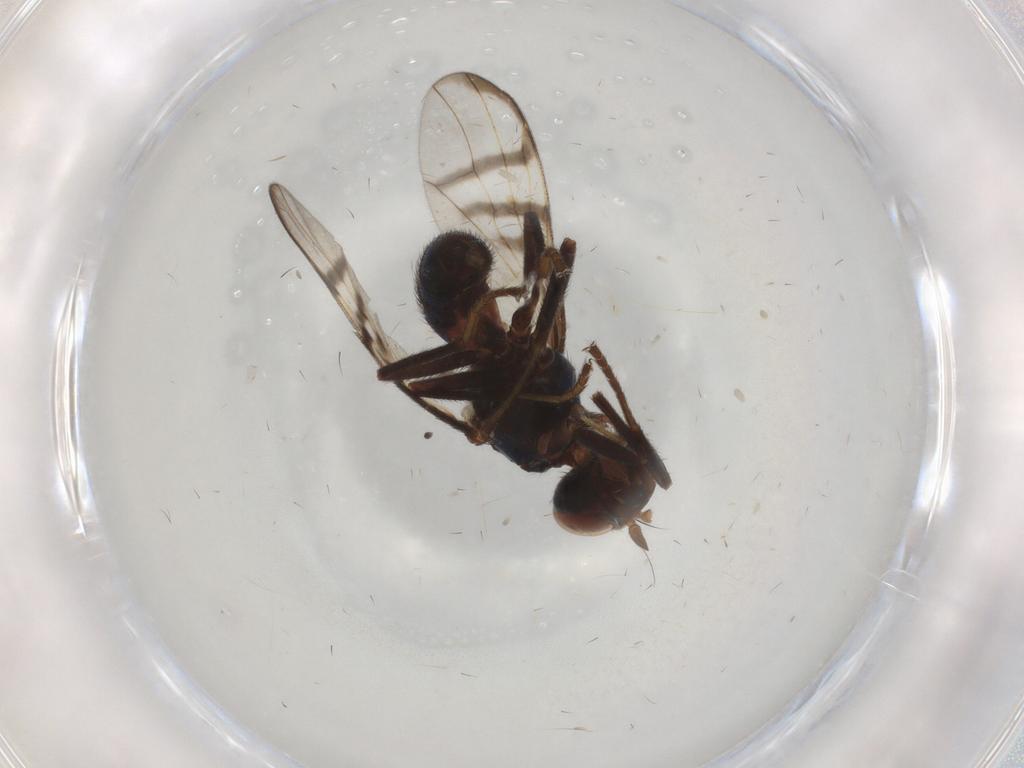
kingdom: Animalia
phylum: Arthropoda
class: Insecta
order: Diptera
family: Platystomatidae
